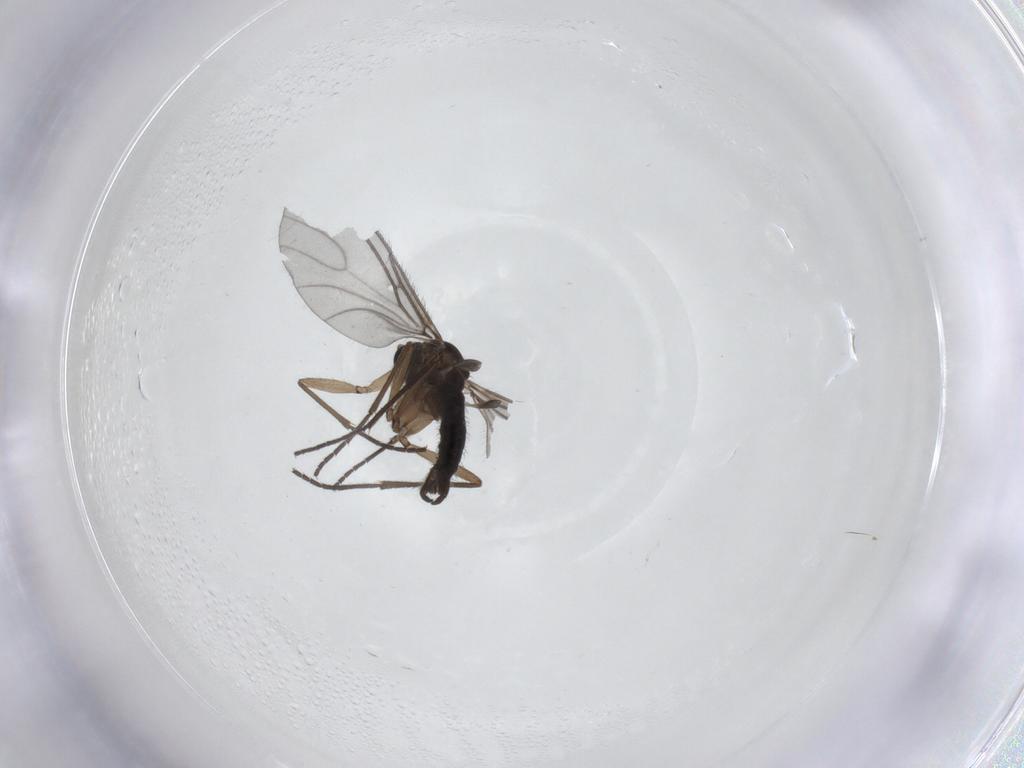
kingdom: Animalia
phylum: Arthropoda
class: Insecta
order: Diptera
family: Sciaridae
